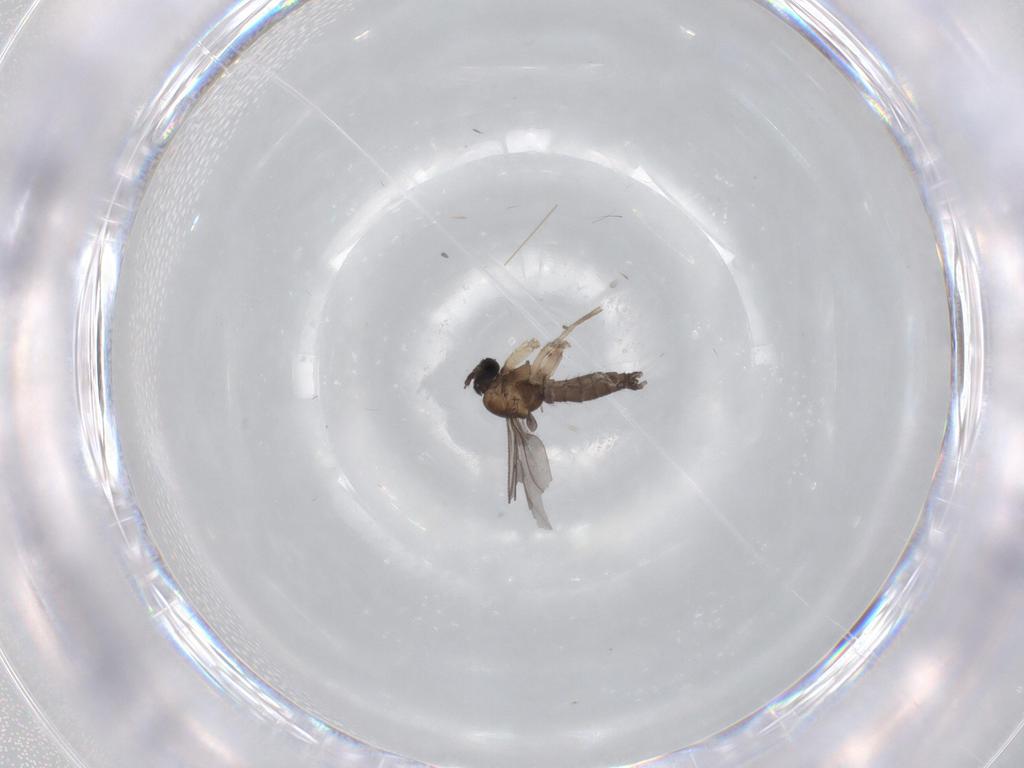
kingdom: Animalia
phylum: Arthropoda
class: Insecta
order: Diptera
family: Sciaridae
